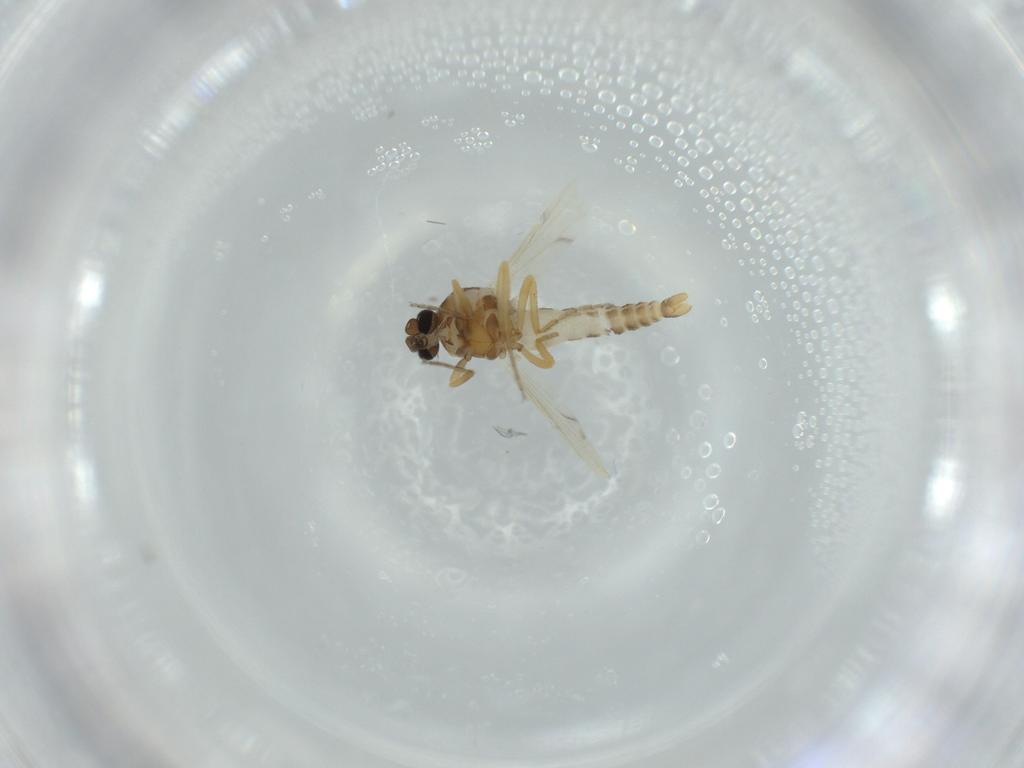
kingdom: Animalia
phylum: Arthropoda
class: Insecta
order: Diptera
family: Ceratopogonidae
